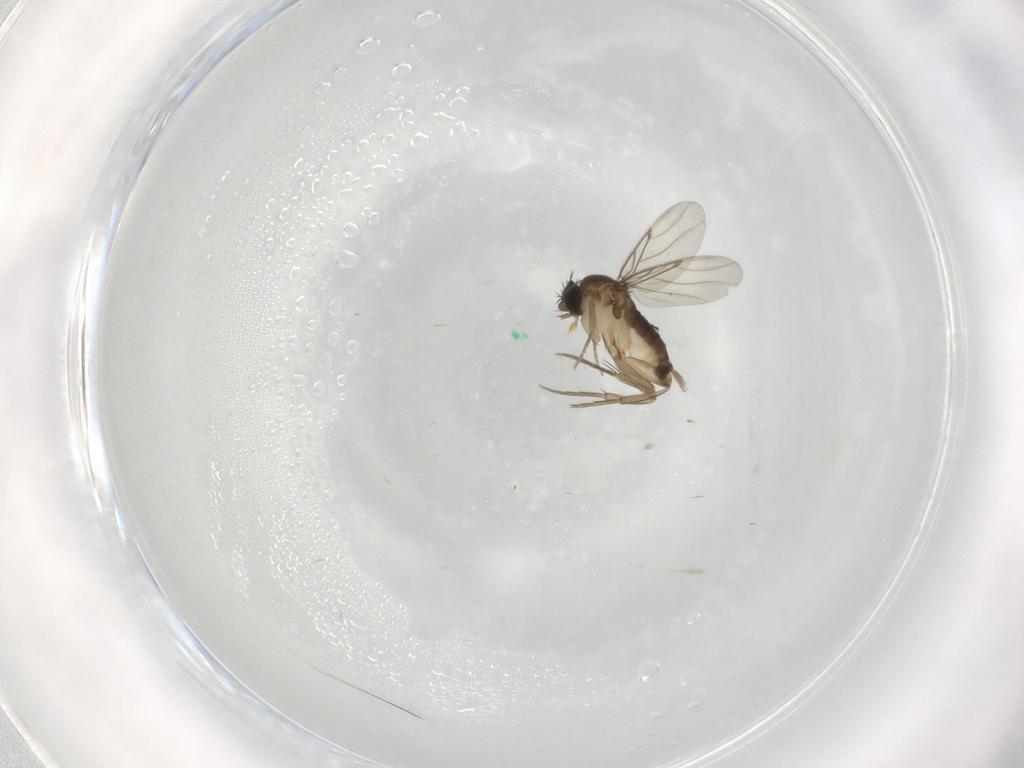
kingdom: Animalia
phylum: Arthropoda
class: Insecta
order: Diptera
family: Phoridae
